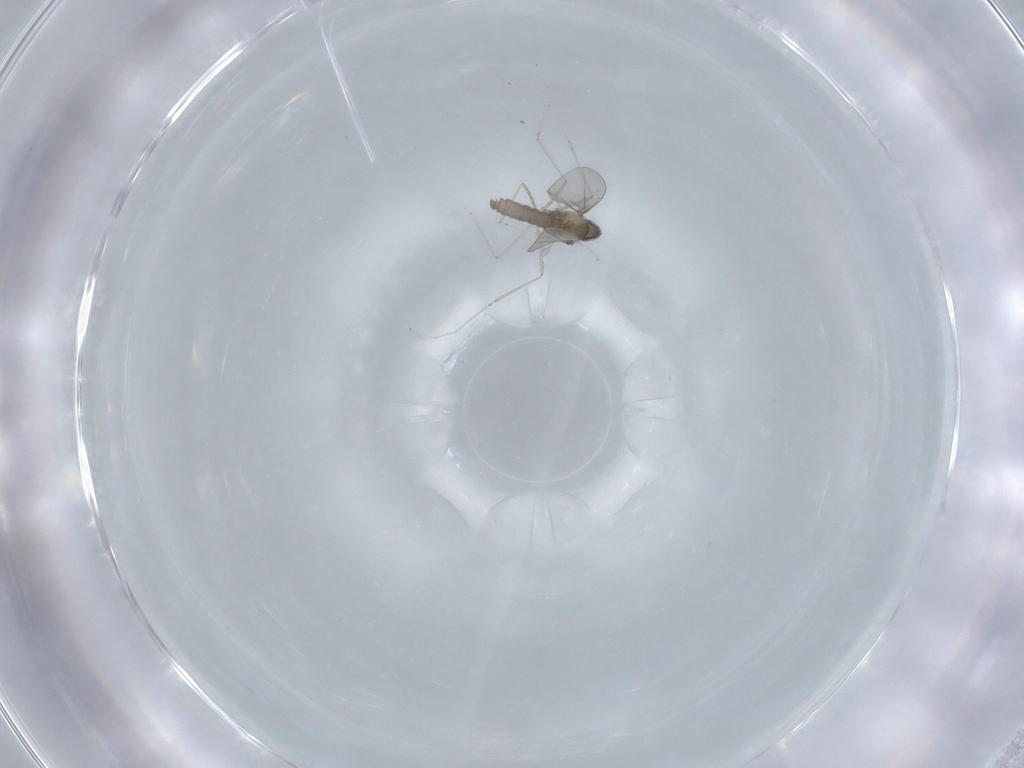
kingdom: Animalia
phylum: Arthropoda
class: Insecta
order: Diptera
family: Cecidomyiidae
